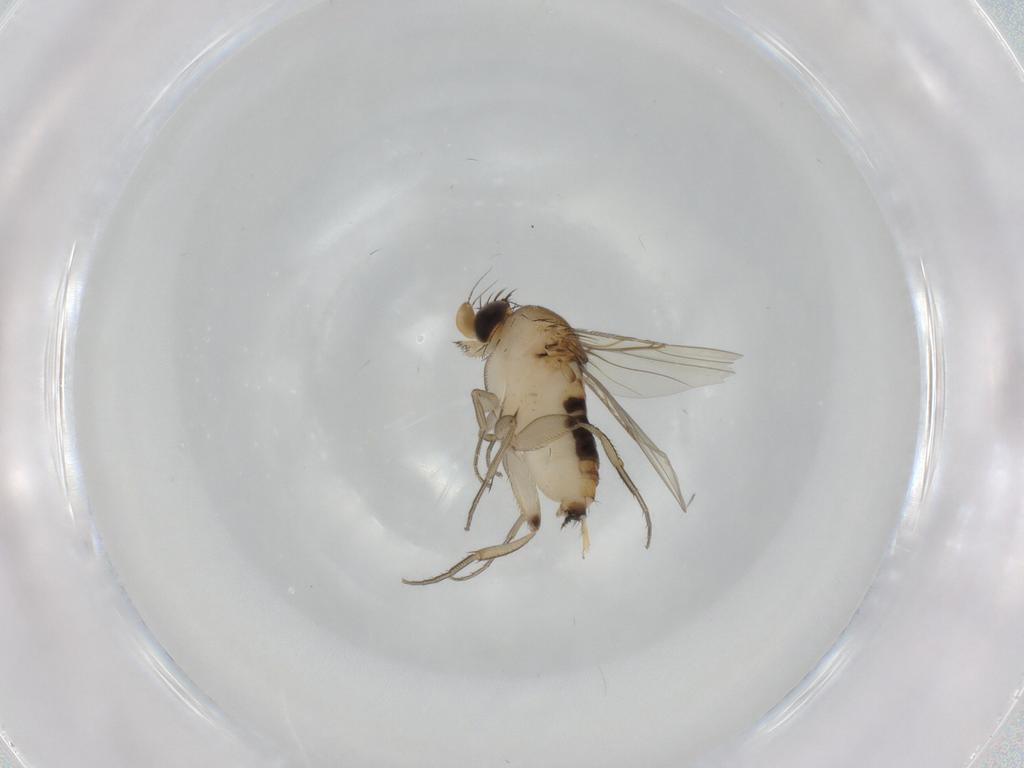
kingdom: Animalia
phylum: Arthropoda
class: Insecta
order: Diptera
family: Phoridae
